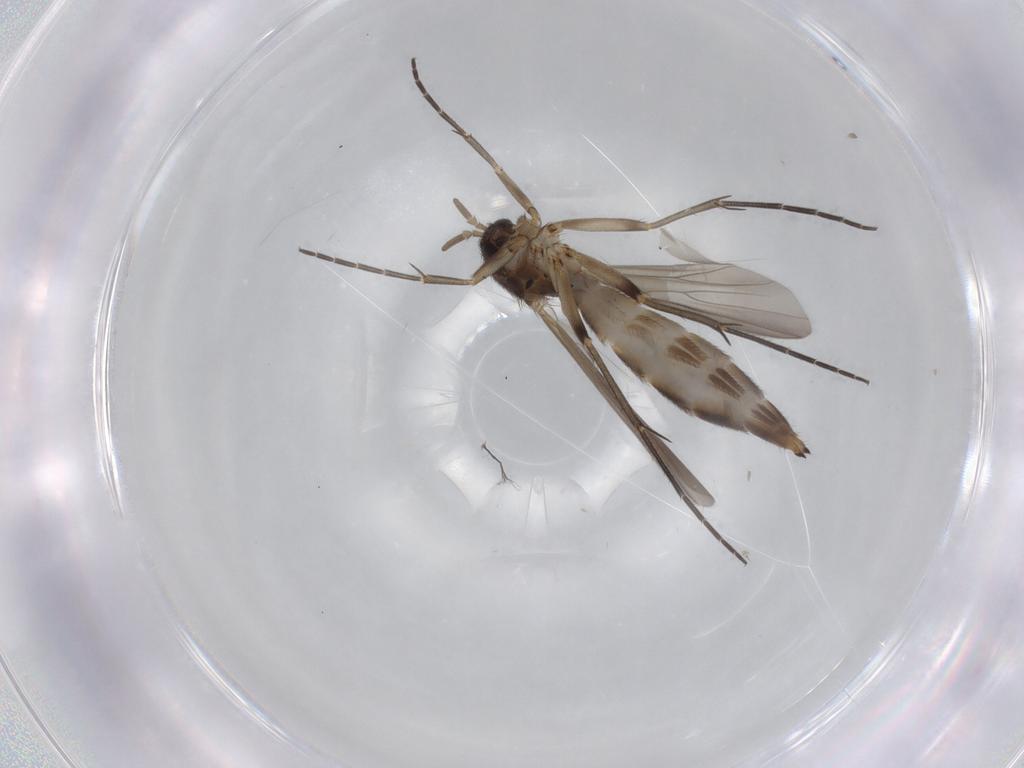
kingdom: Animalia
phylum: Arthropoda
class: Insecta
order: Diptera
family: Mycetophilidae
